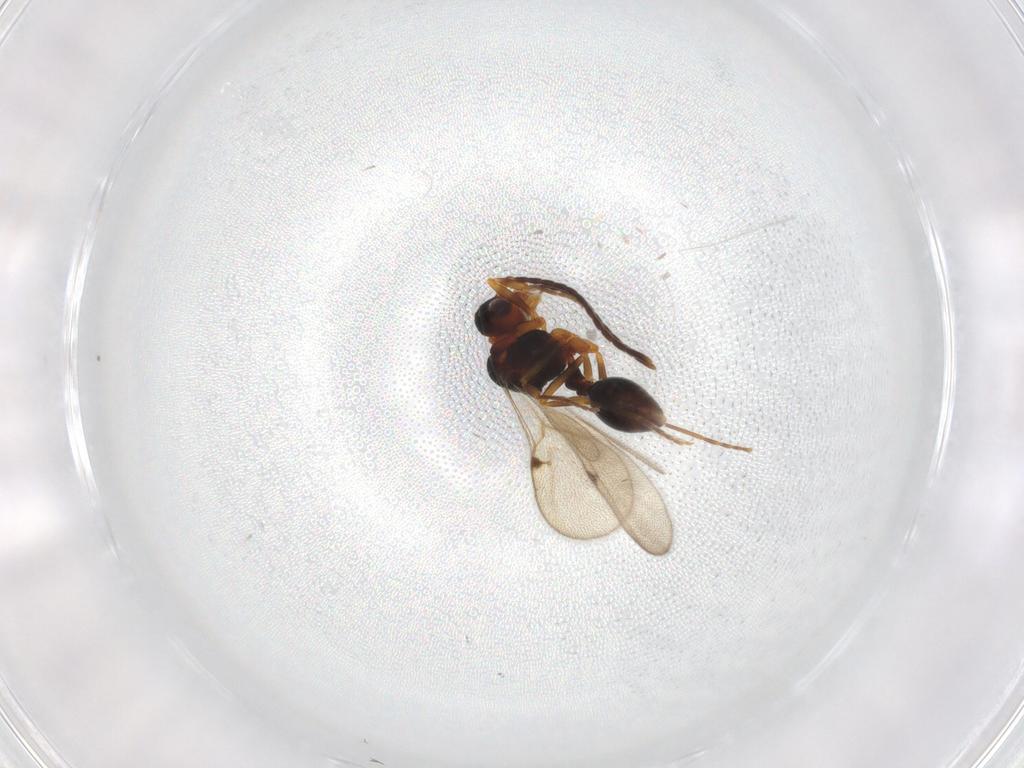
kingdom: Animalia
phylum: Arthropoda
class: Insecta
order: Hymenoptera
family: Formicidae
